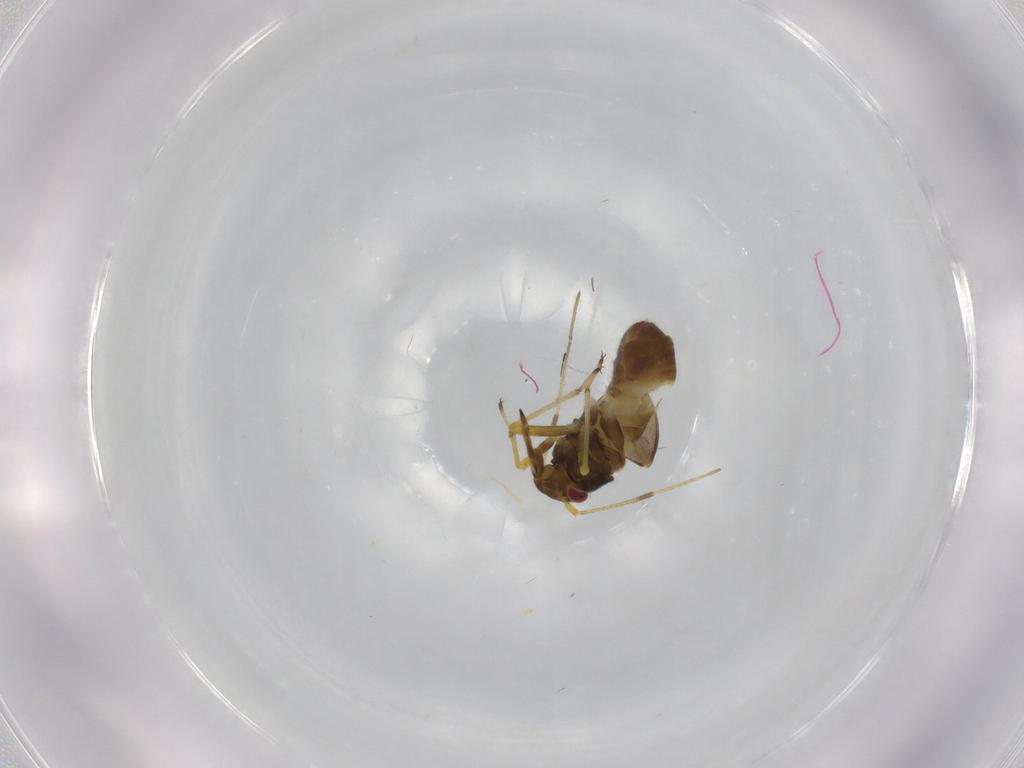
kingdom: Animalia
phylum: Arthropoda
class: Insecta
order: Hemiptera
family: Miridae
